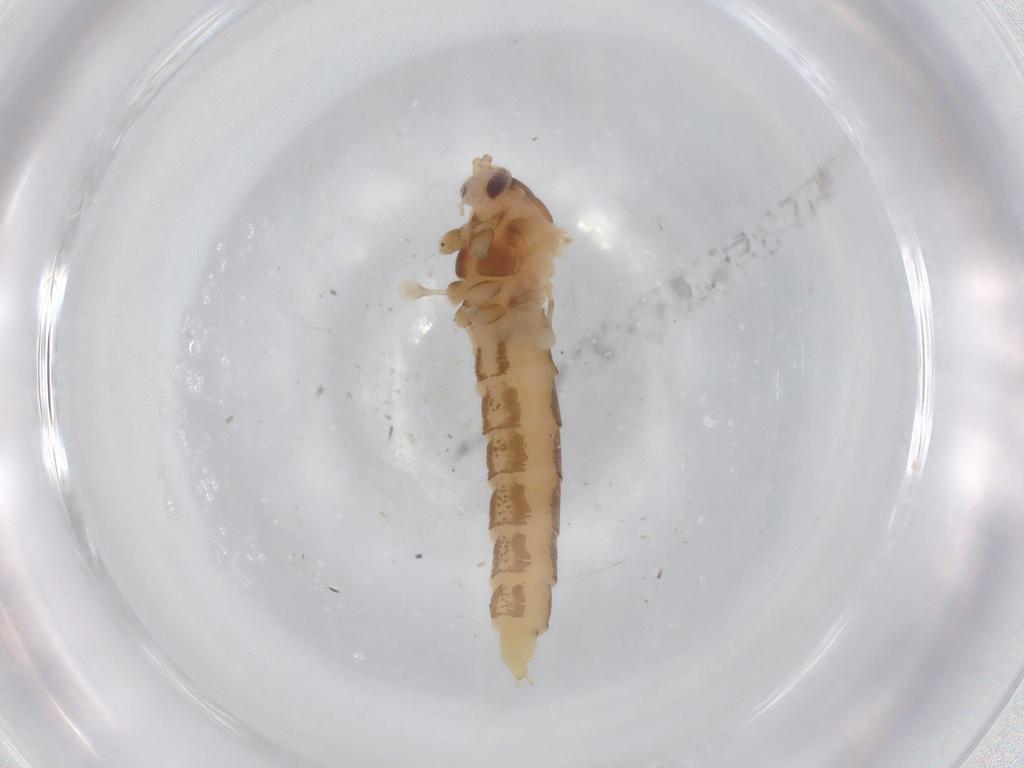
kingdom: Animalia
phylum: Arthropoda
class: Insecta
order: Diptera
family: Cecidomyiidae
